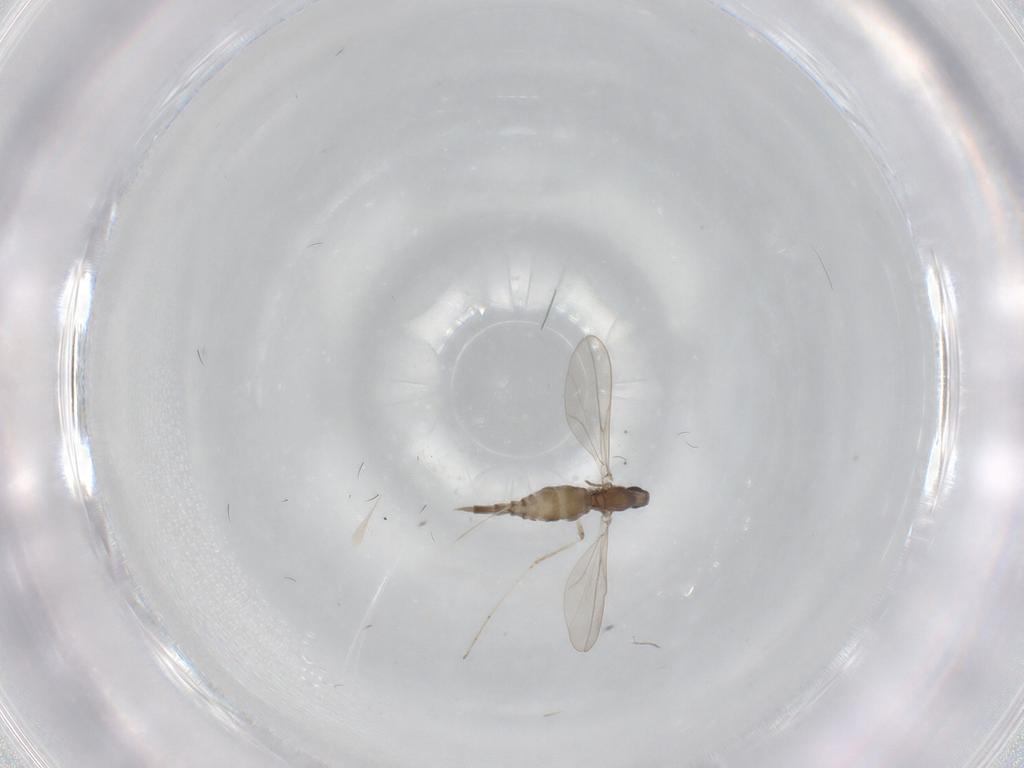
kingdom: Animalia
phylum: Arthropoda
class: Insecta
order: Diptera
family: Cecidomyiidae
